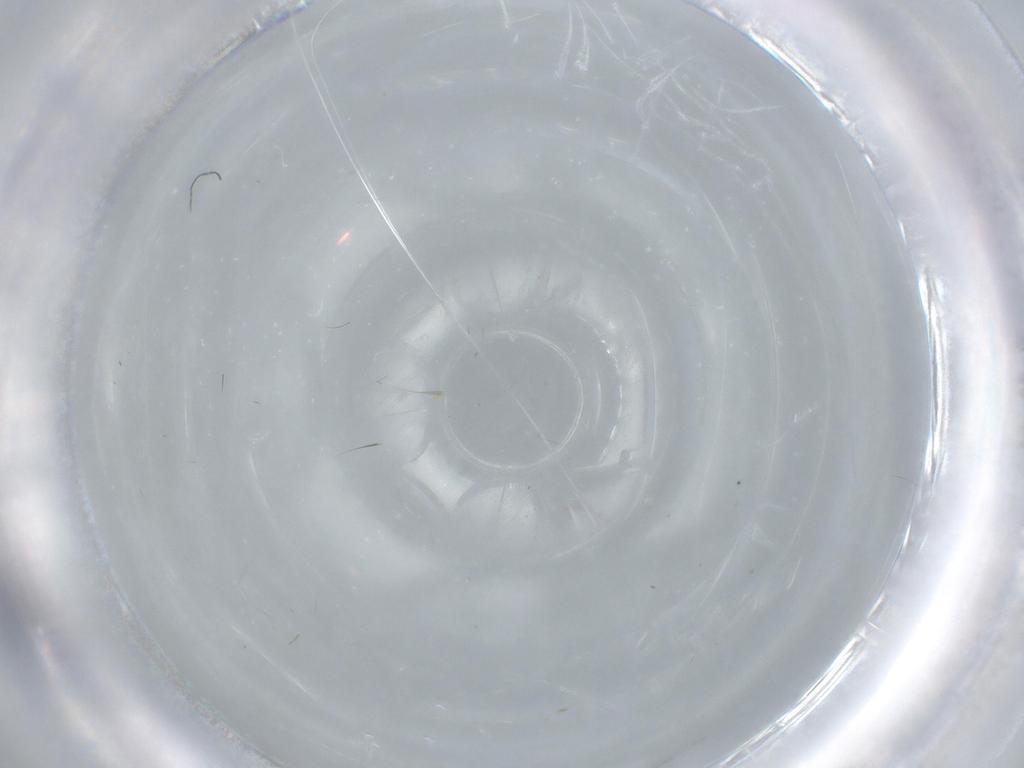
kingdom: Animalia
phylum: Arthropoda
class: Insecta
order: Diptera
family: Cecidomyiidae
